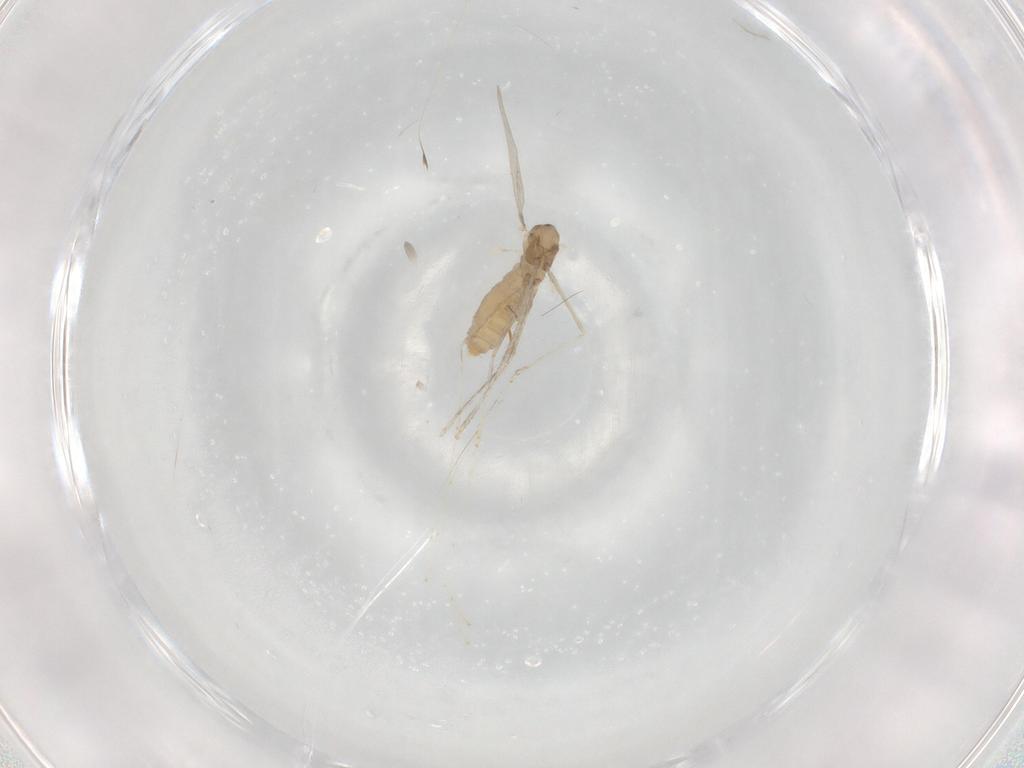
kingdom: Animalia
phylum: Arthropoda
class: Insecta
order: Diptera
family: Cecidomyiidae
